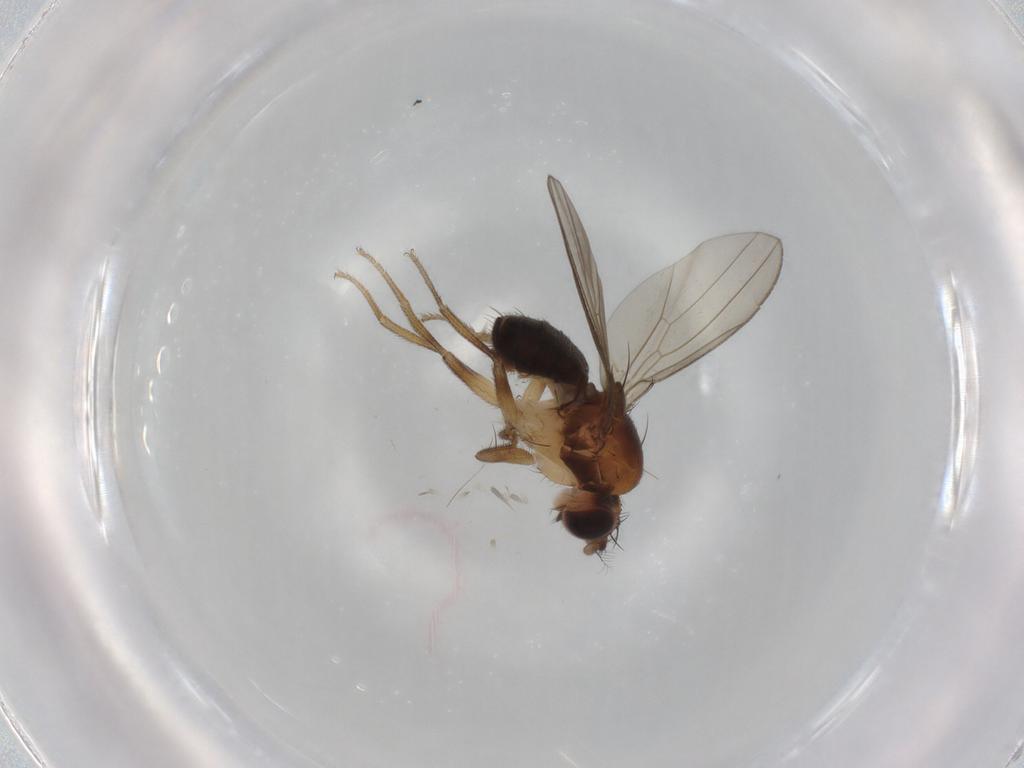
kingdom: Animalia
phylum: Arthropoda
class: Insecta
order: Diptera
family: Drosophilidae
